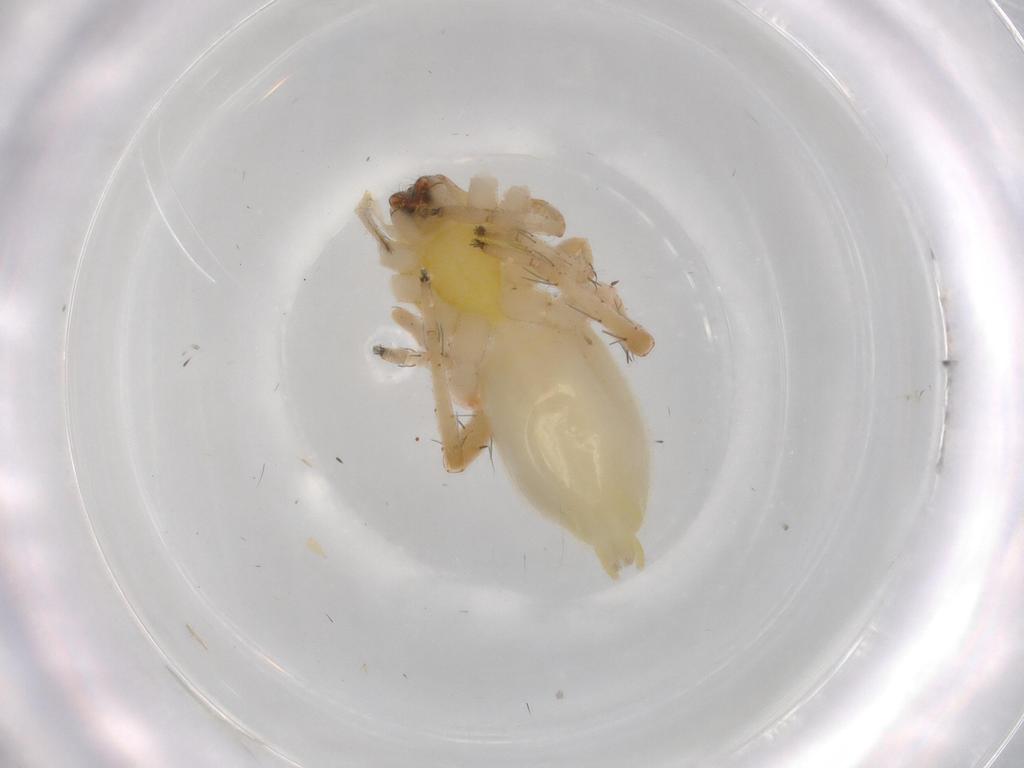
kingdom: Animalia
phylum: Arthropoda
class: Arachnida
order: Araneae
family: Anyphaenidae
